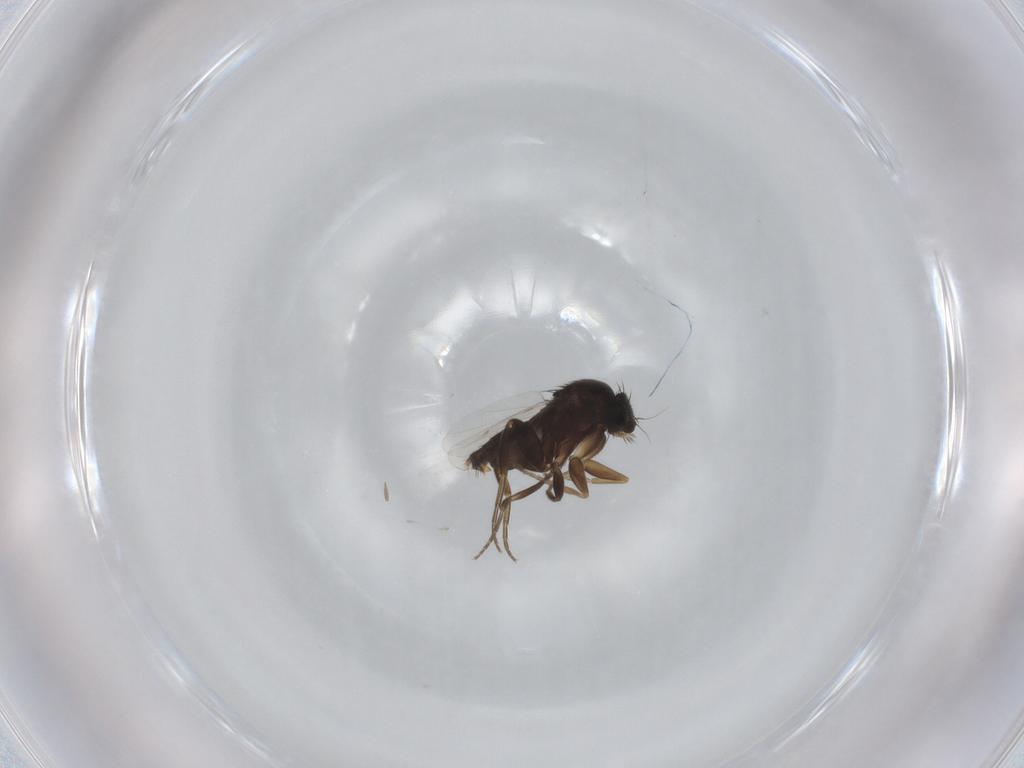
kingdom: Animalia
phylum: Arthropoda
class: Insecta
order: Diptera
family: Phoridae
